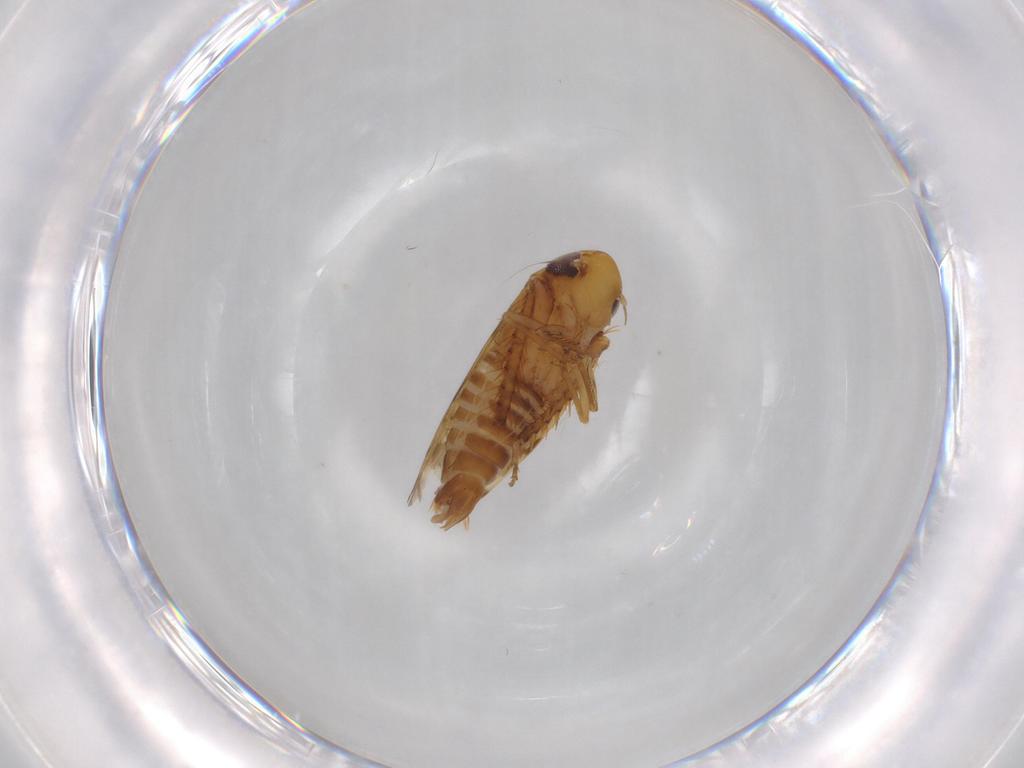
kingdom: Animalia
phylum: Arthropoda
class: Insecta
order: Hemiptera
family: Cicadellidae
